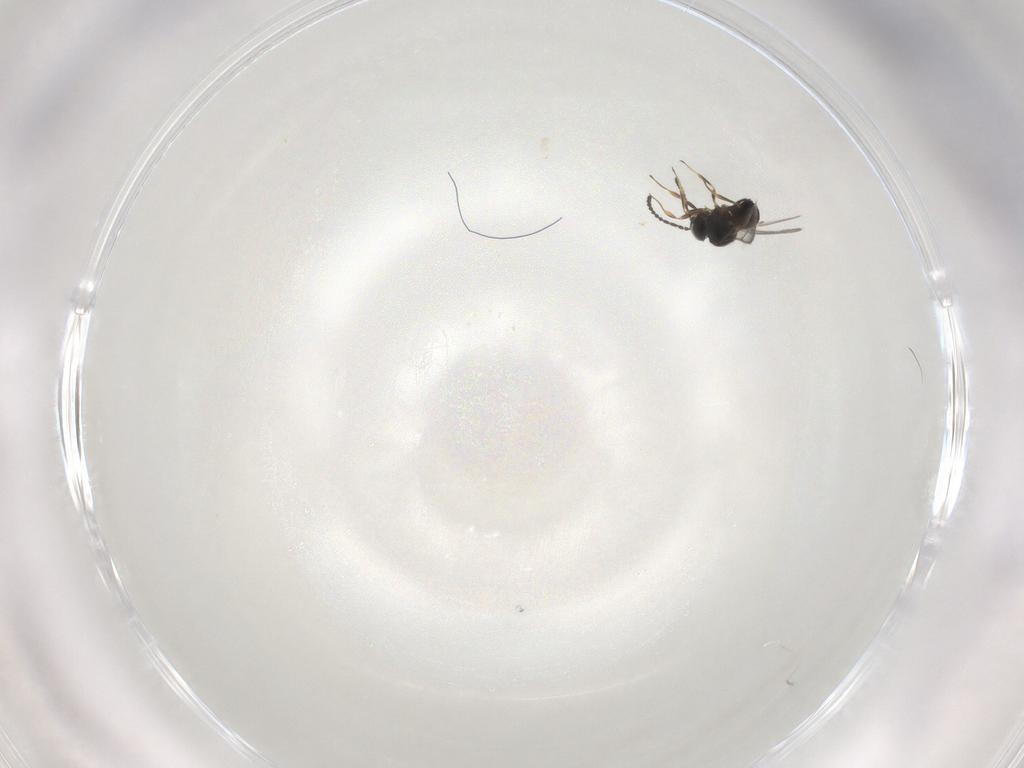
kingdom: Animalia
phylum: Arthropoda
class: Insecta
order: Hymenoptera
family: Scelionidae
